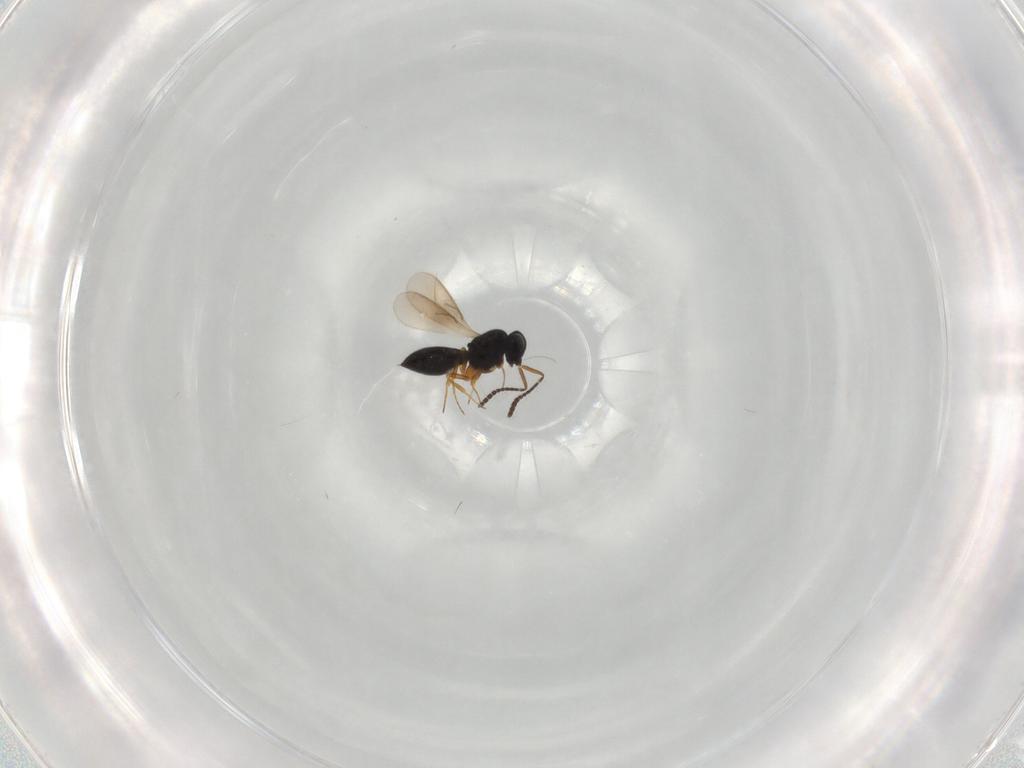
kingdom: Animalia
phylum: Arthropoda
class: Insecta
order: Hymenoptera
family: Scelionidae
